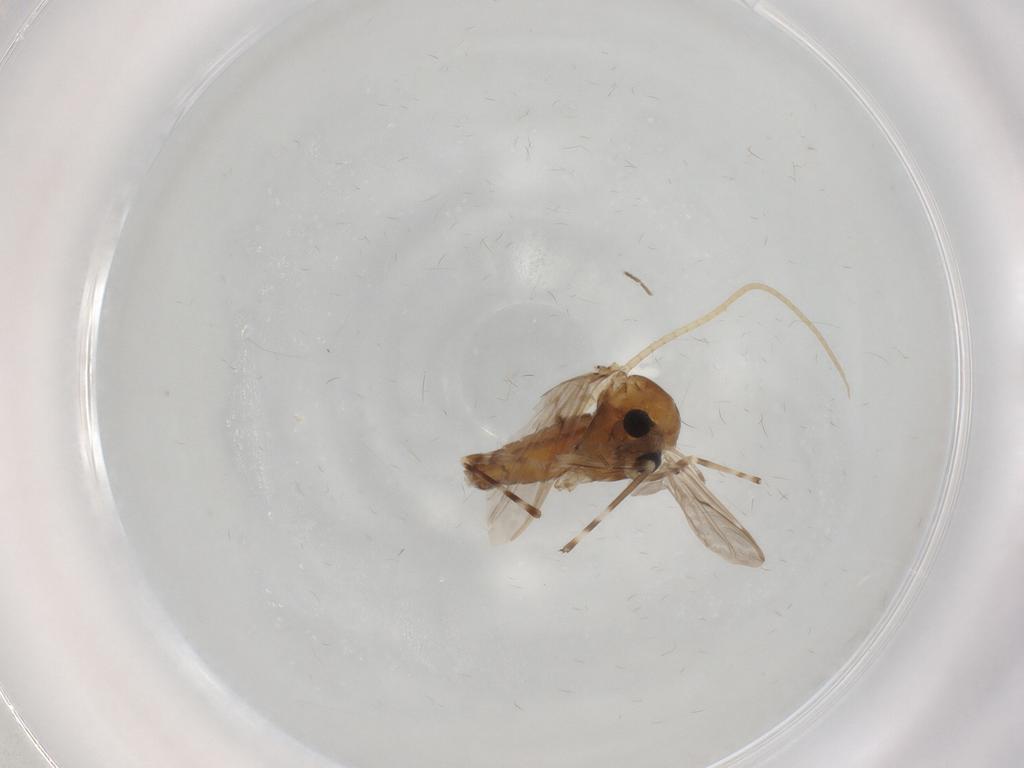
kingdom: Animalia
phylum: Arthropoda
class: Insecta
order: Diptera
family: Chironomidae
